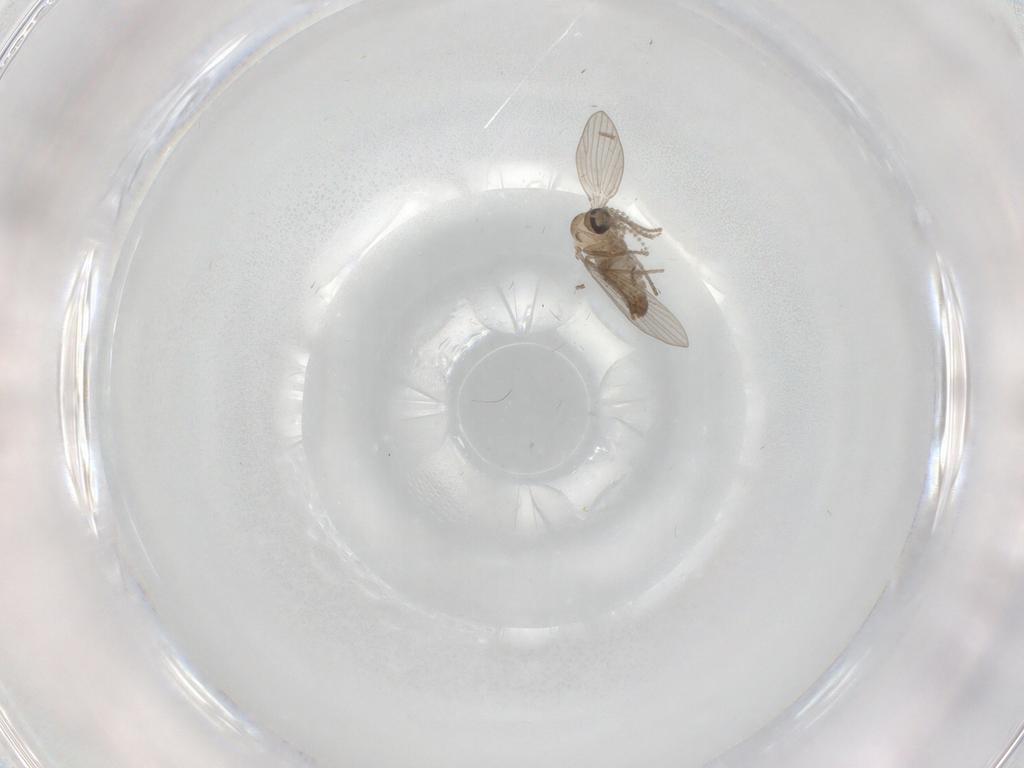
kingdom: Animalia
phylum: Arthropoda
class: Insecta
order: Diptera
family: Psychodidae
